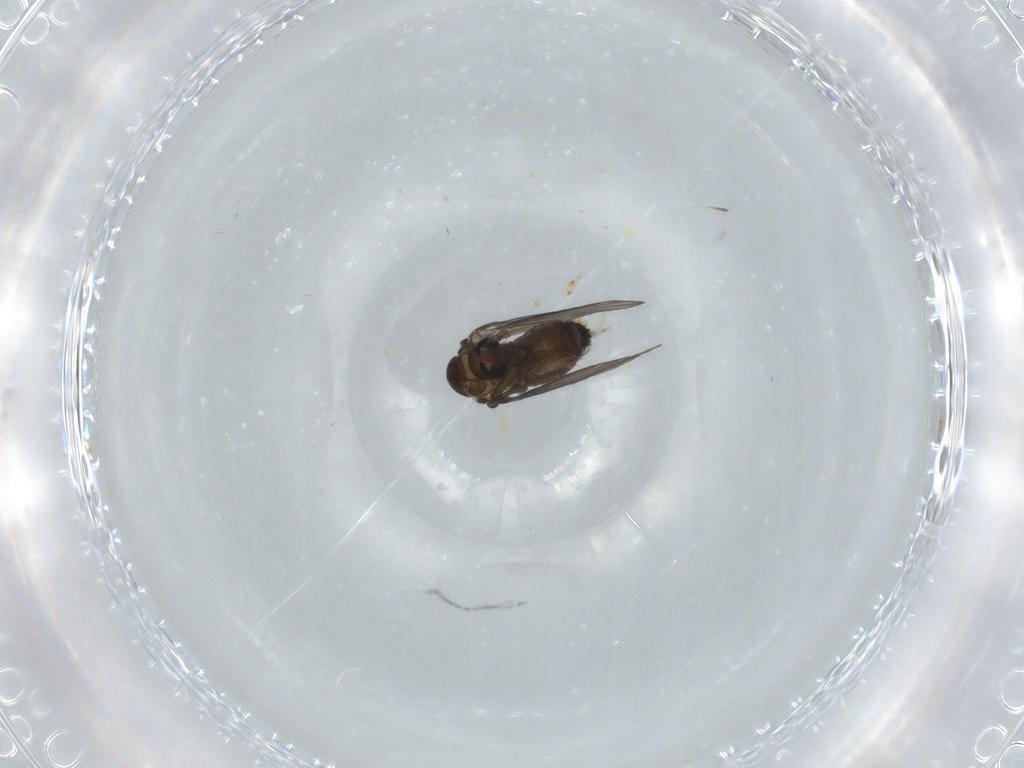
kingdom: Animalia
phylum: Arthropoda
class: Insecta
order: Diptera
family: Psychodidae
